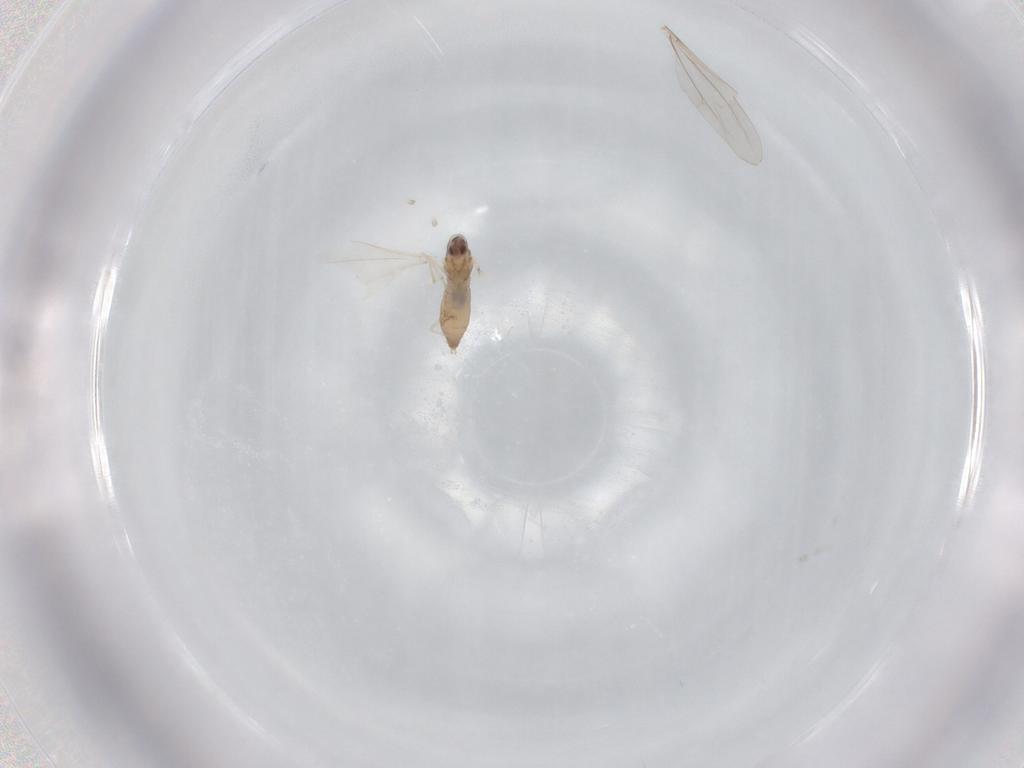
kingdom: Animalia
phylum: Arthropoda
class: Insecta
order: Diptera
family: Cecidomyiidae
